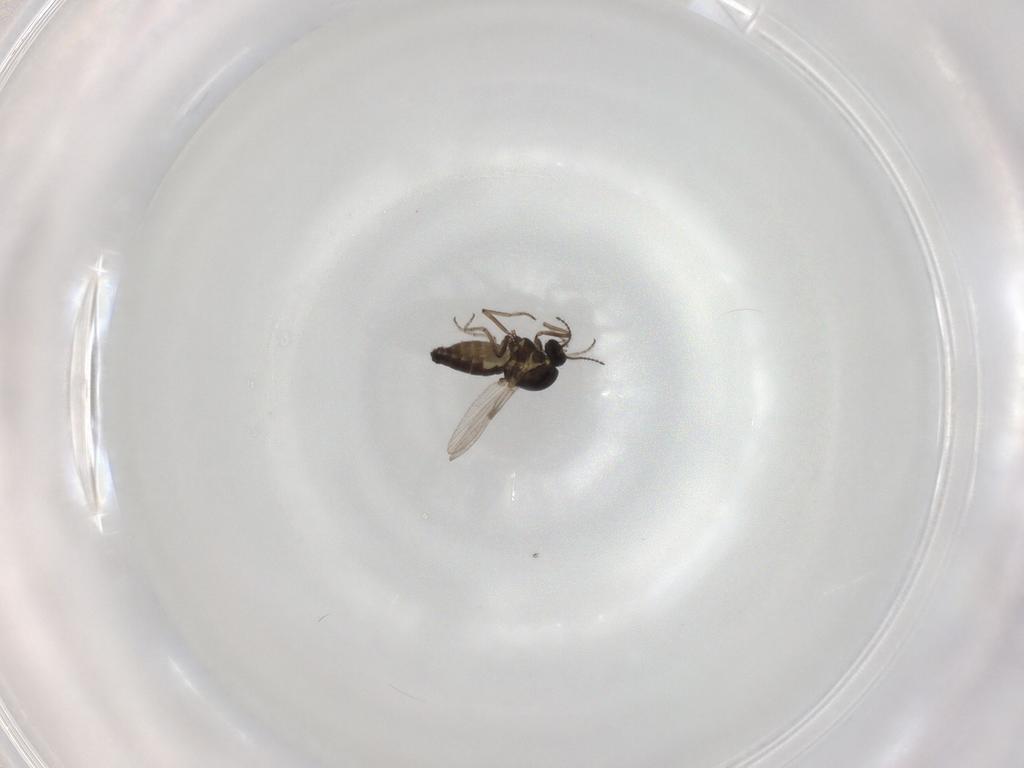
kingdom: Animalia
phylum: Arthropoda
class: Insecta
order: Diptera
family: Ceratopogonidae
